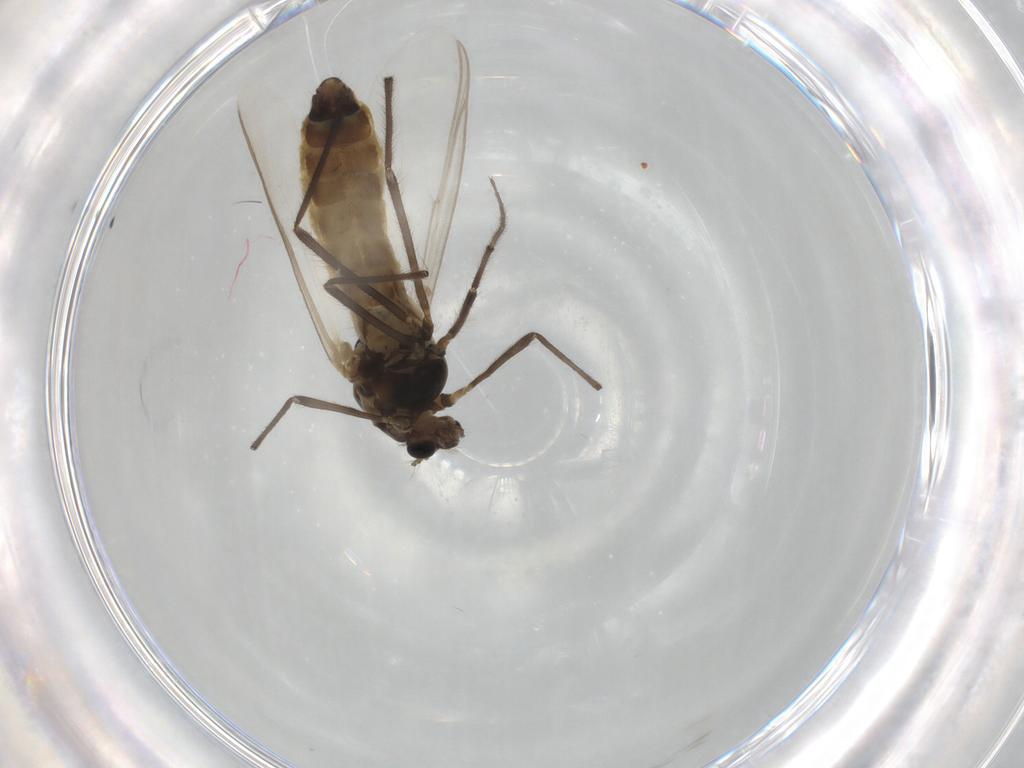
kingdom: Animalia
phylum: Arthropoda
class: Insecta
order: Diptera
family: Chironomidae
